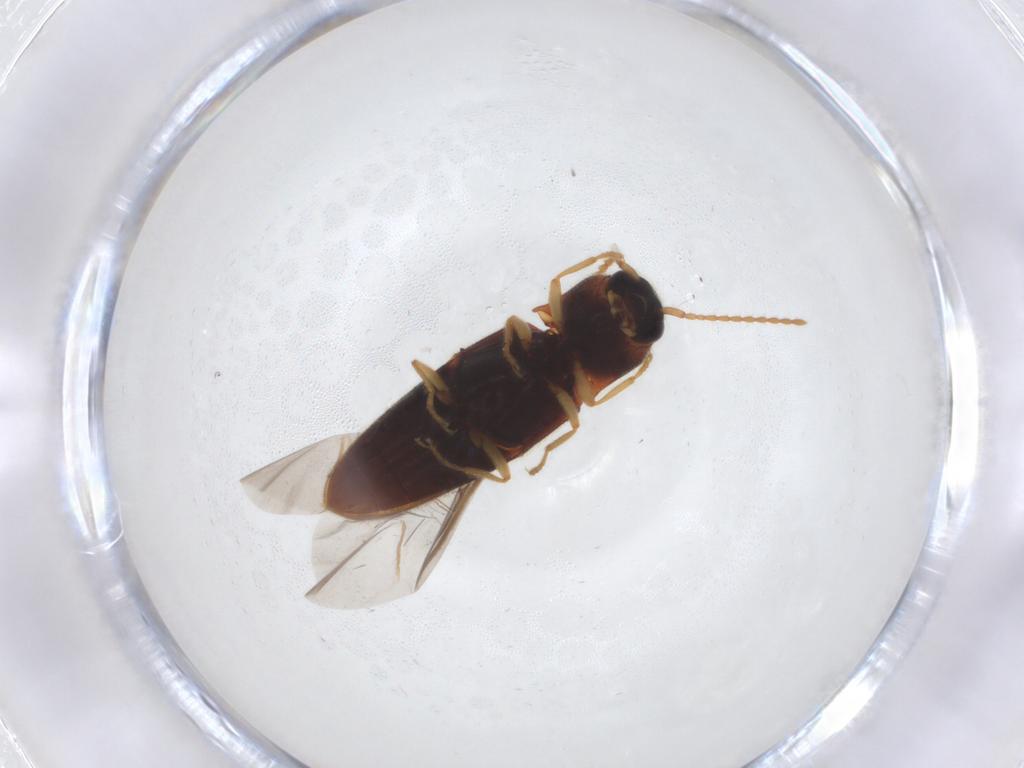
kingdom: Animalia
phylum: Arthropoda
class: Insecta
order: Coleoptera
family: Elateridae
